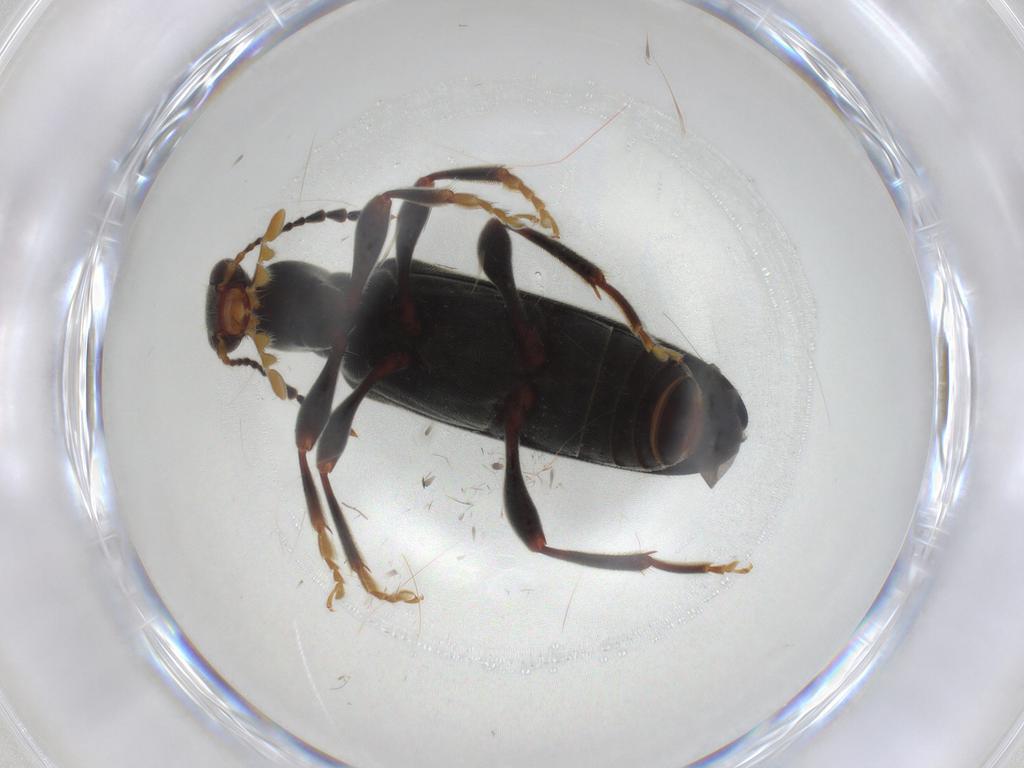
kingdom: Animalia
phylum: Arthropoda
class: Insecta
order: Coleoptera
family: Anthicidae
